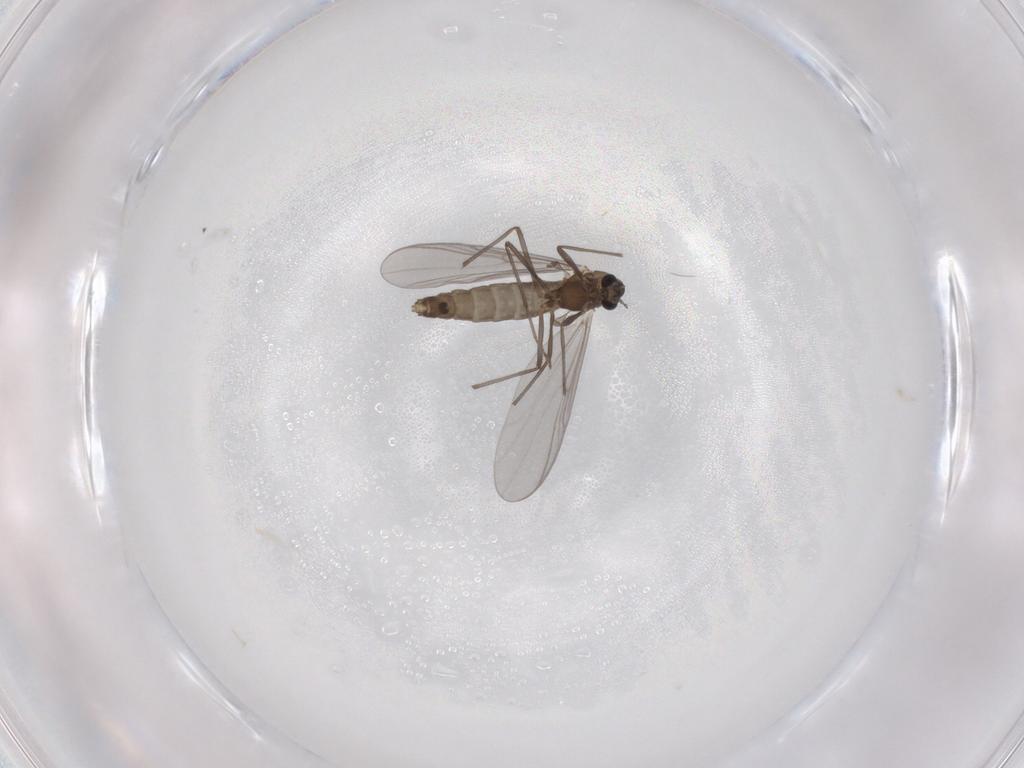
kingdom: Animalia
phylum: Arthropoda
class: Insecta
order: Diptera
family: Chironomidae
